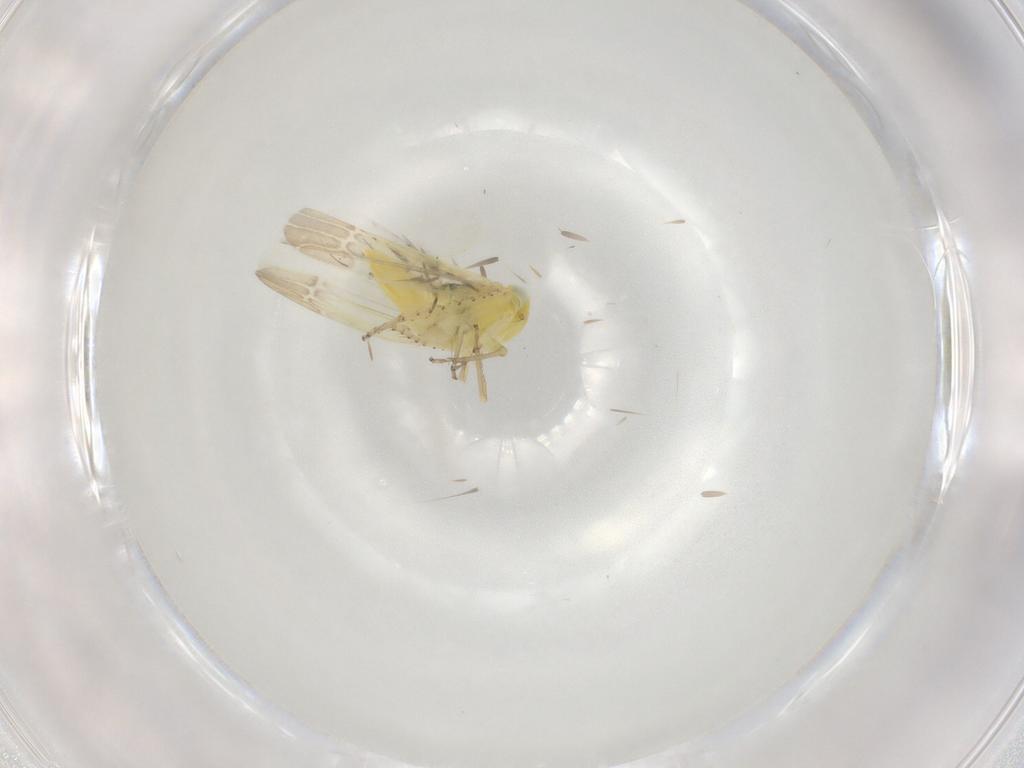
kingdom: Animalia
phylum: Arthropoda
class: Insecta
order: Hemiptera
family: Cicadellidae
